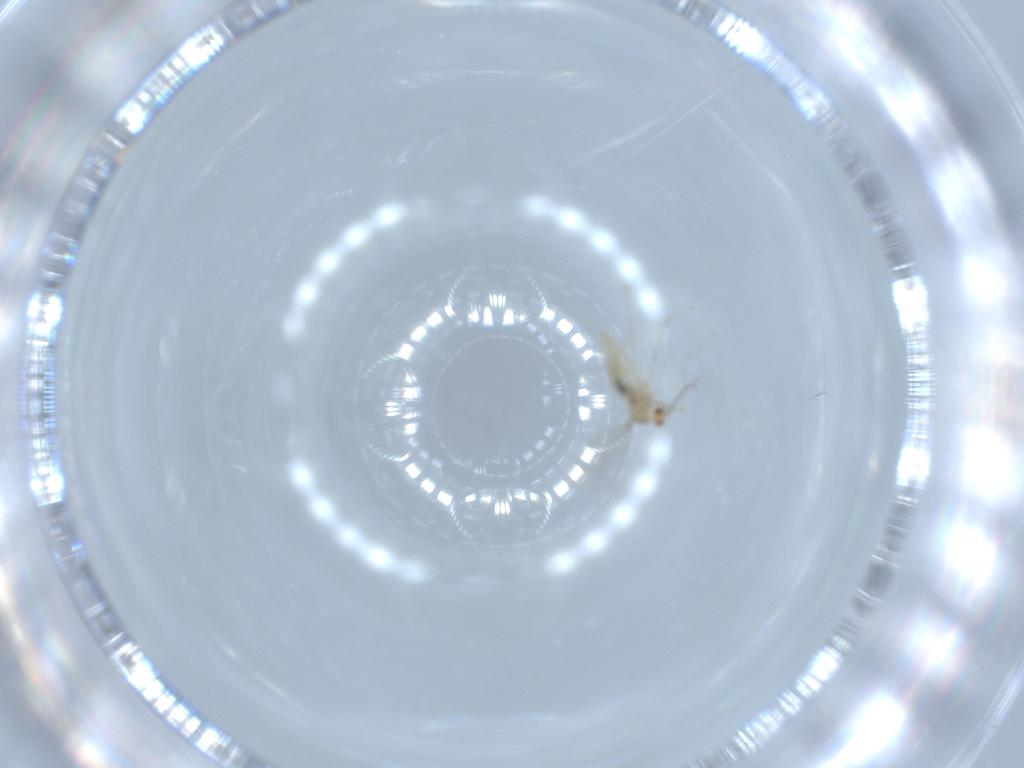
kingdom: Animalia
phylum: Arthropoda
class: Insecta
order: Diptera
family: Cecidomyiidae
